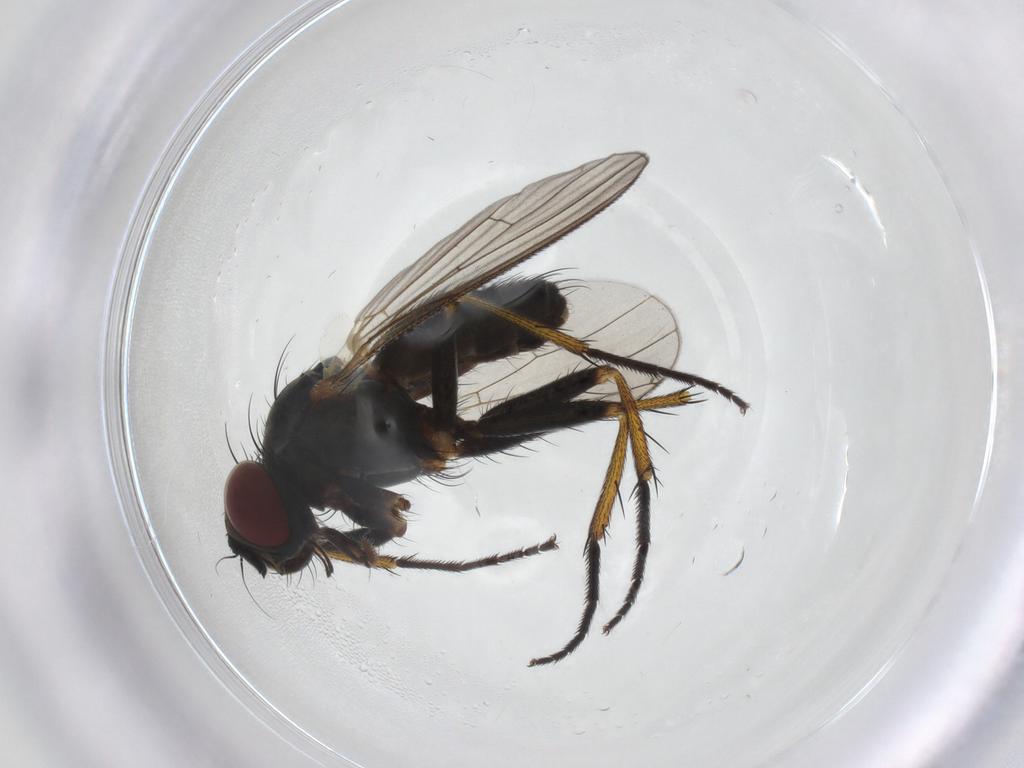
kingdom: Animalia
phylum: Arthropoda
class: Insecta
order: Diptera
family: Muscidae
